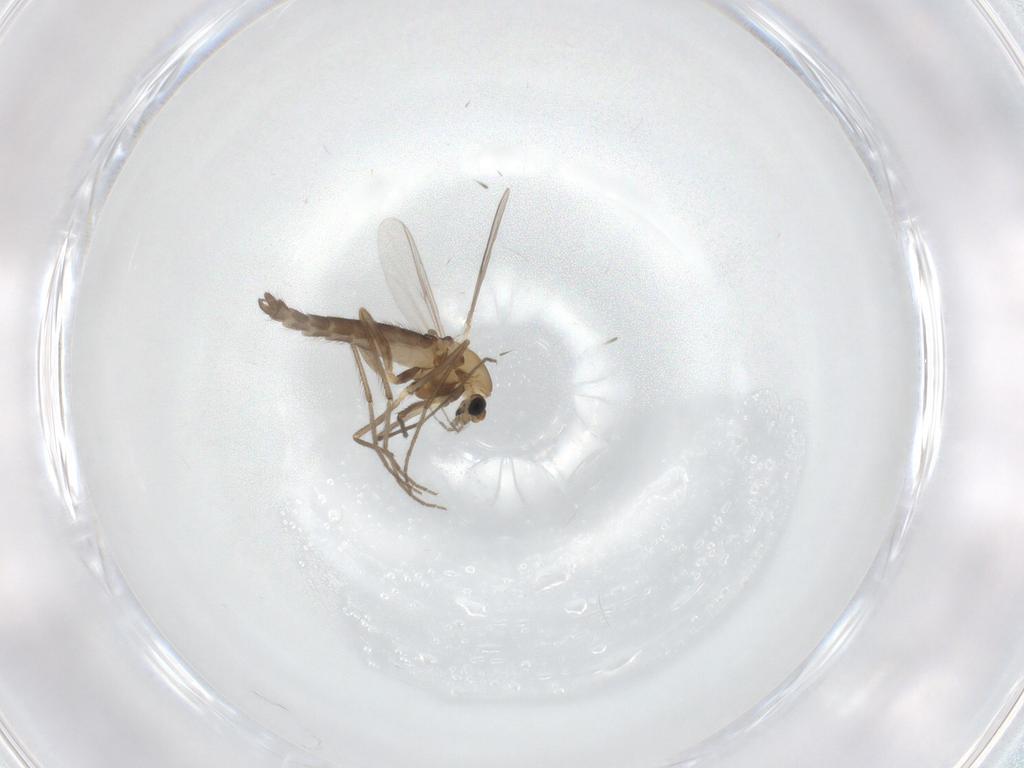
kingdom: Animalia
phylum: Arthropoda
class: Insecta
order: Diptera
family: Chironomidae
